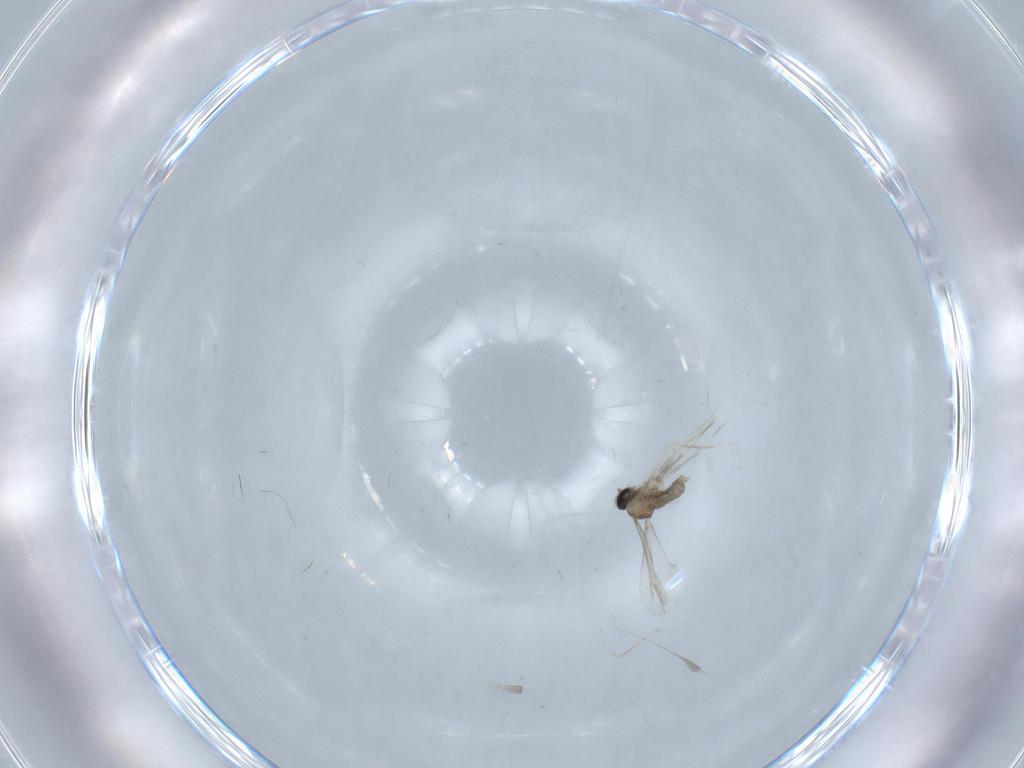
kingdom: Animalia
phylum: Arthropoda
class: Insecta
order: Diptera
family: Cecidomyiidae
